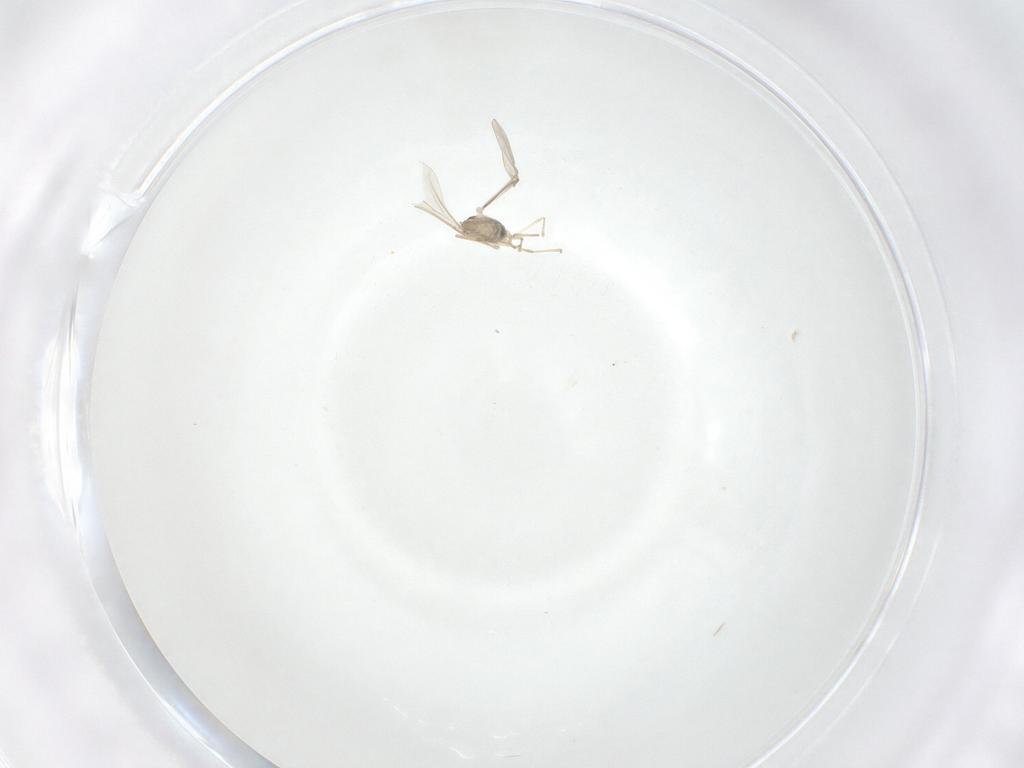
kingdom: Animalia
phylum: Arthropoda
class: Insecta
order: Diptera
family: Cecidomyiidae
